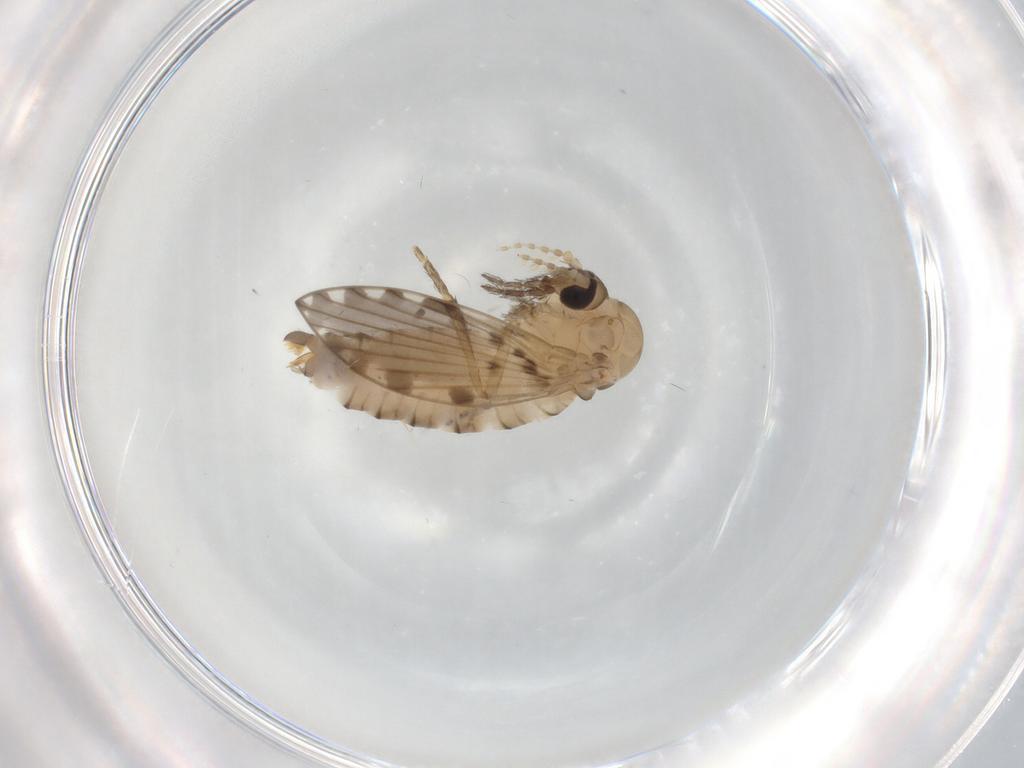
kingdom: Animalia
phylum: Arthropoda
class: Insecta
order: Diptera
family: Psychodidae
